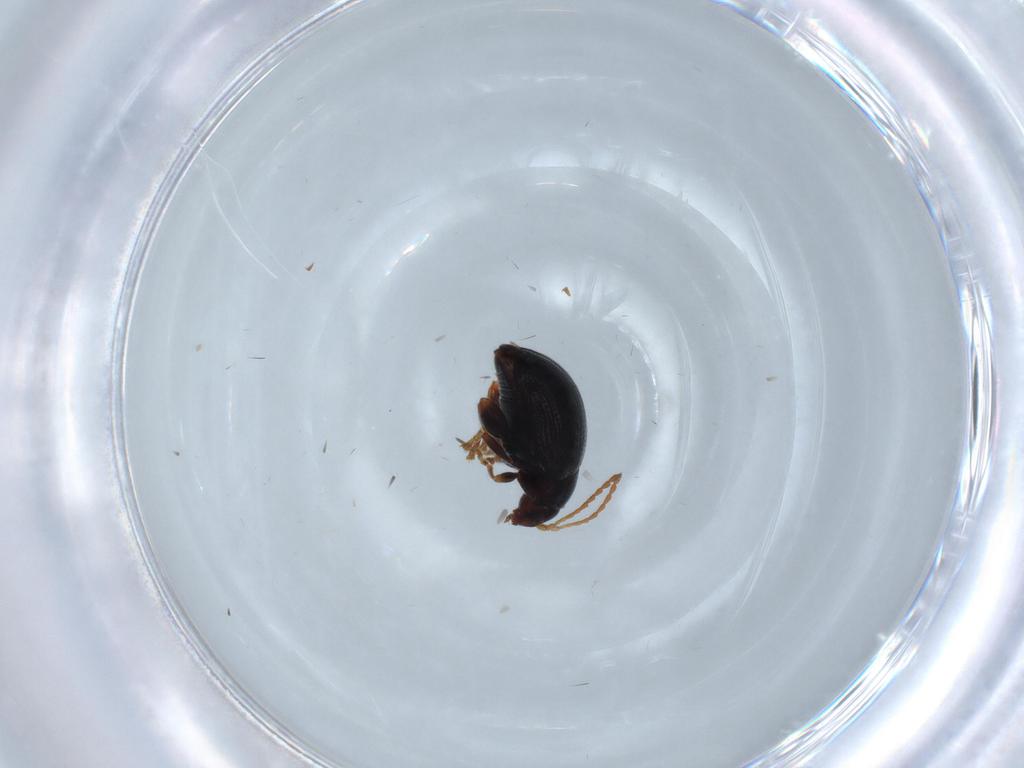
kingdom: Animalia
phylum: Arthropoda
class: Insecta
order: Coleoptera
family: Chrysomelidae
